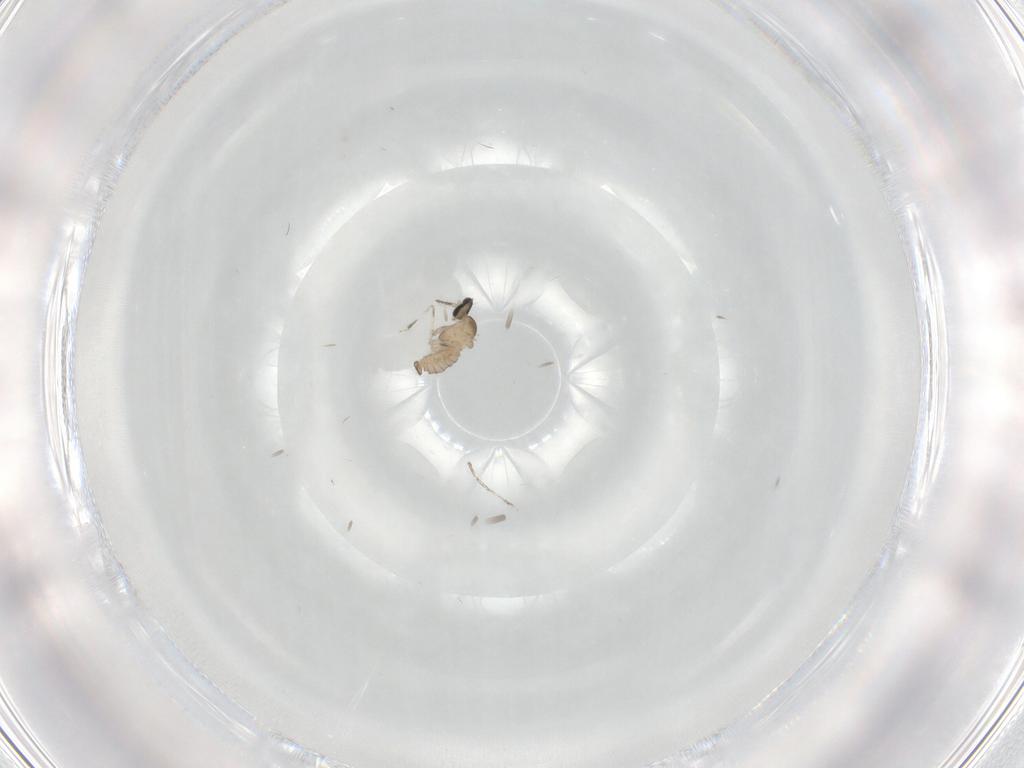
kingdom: Animalia
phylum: Arthropoda
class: Insecta
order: Diptera
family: Cecidomyiidae
